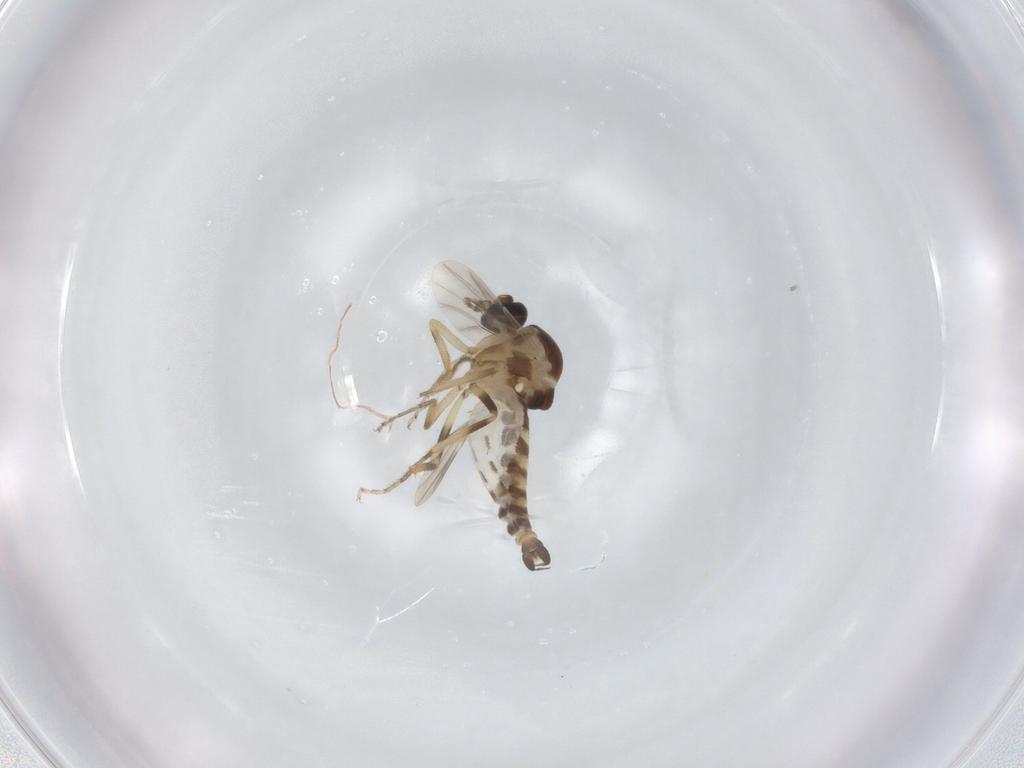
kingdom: Animalia
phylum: Arthropoda
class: Insecta
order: Diptera
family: Ceratopogonidae
